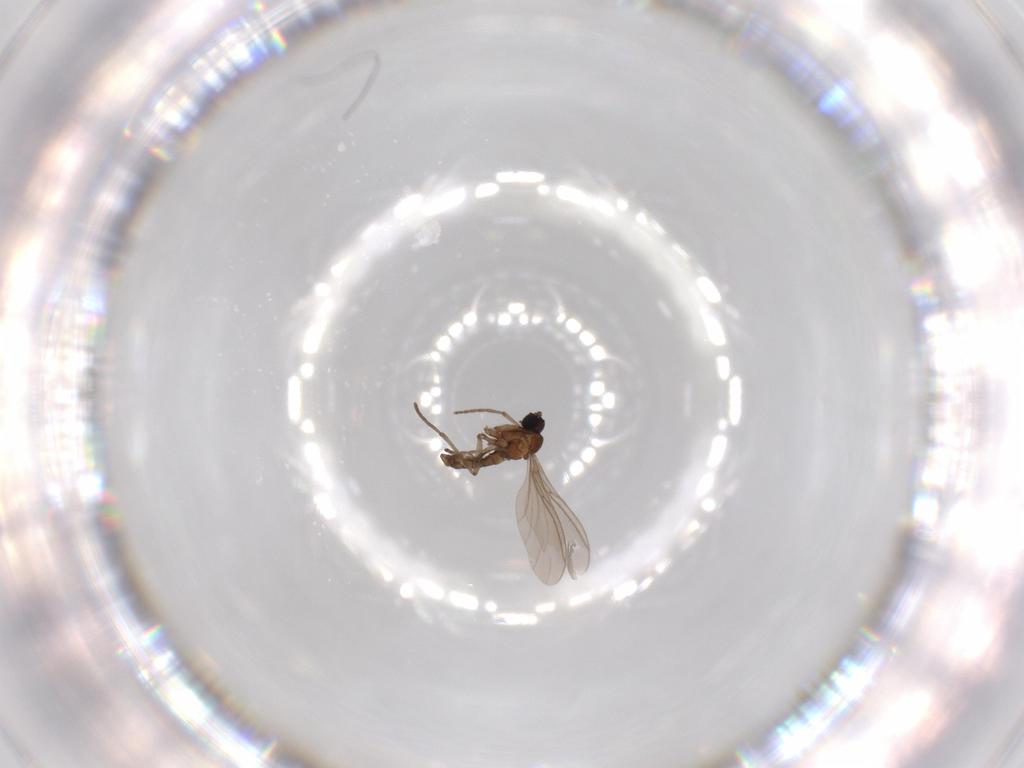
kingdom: Animalia
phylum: Arthropoda
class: Insecta
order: Diptera
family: Sciaridae
